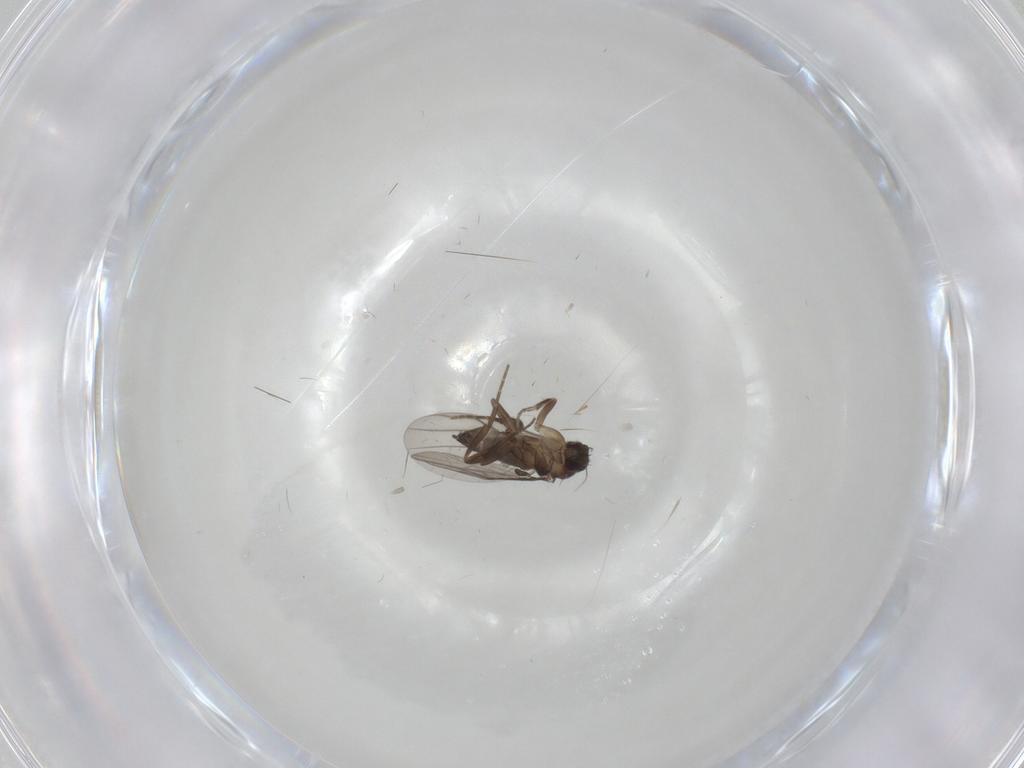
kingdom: Animalia
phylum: Arthropoda
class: Insecta
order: Diptera
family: Phoridae
